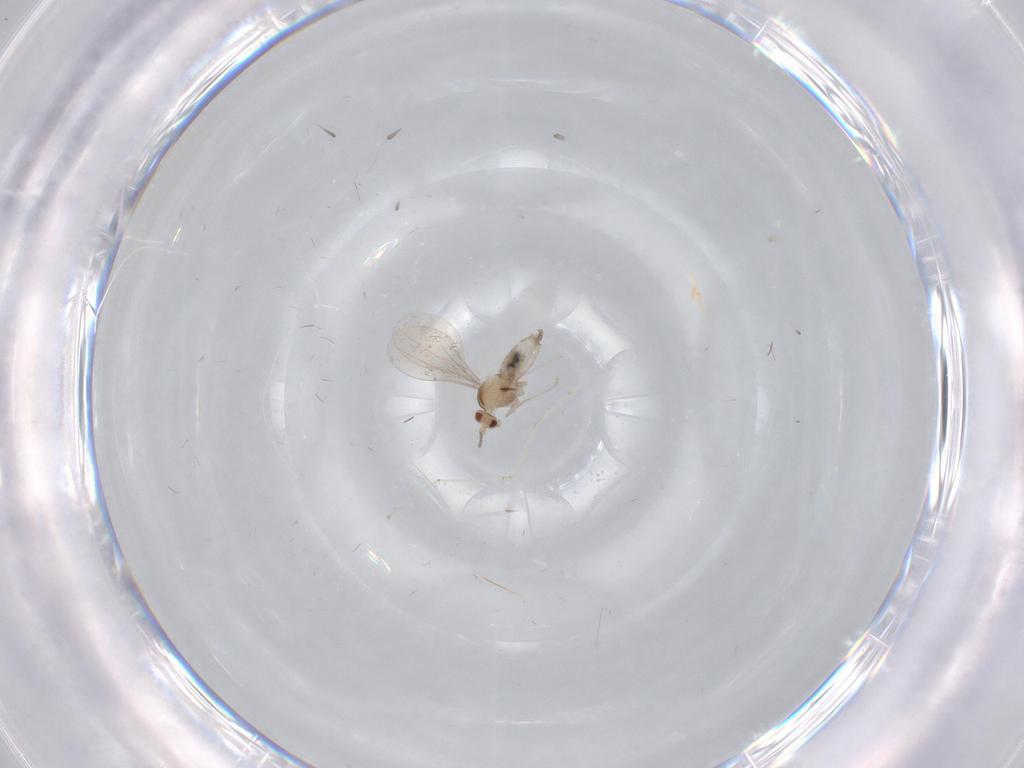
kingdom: Animalia
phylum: Arthropoda
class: Insecta
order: Diptera
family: Cecidomyiidae
